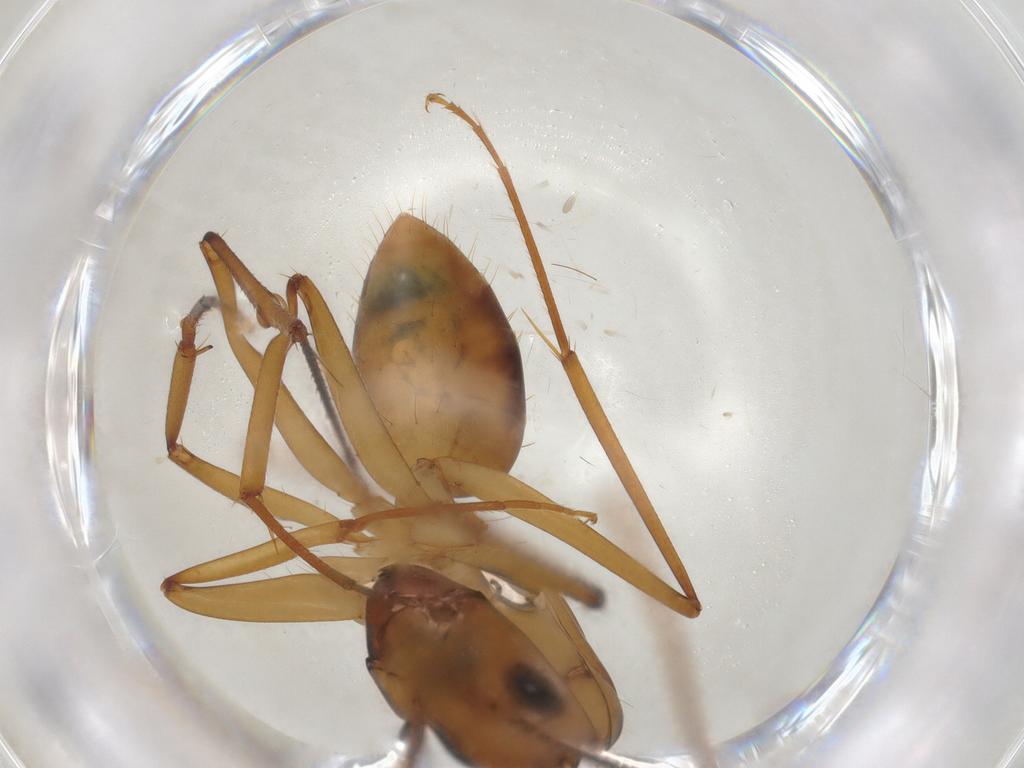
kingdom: Animalia
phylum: Arthropoda
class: Insecta
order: Hymenoptera
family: Formicidae
